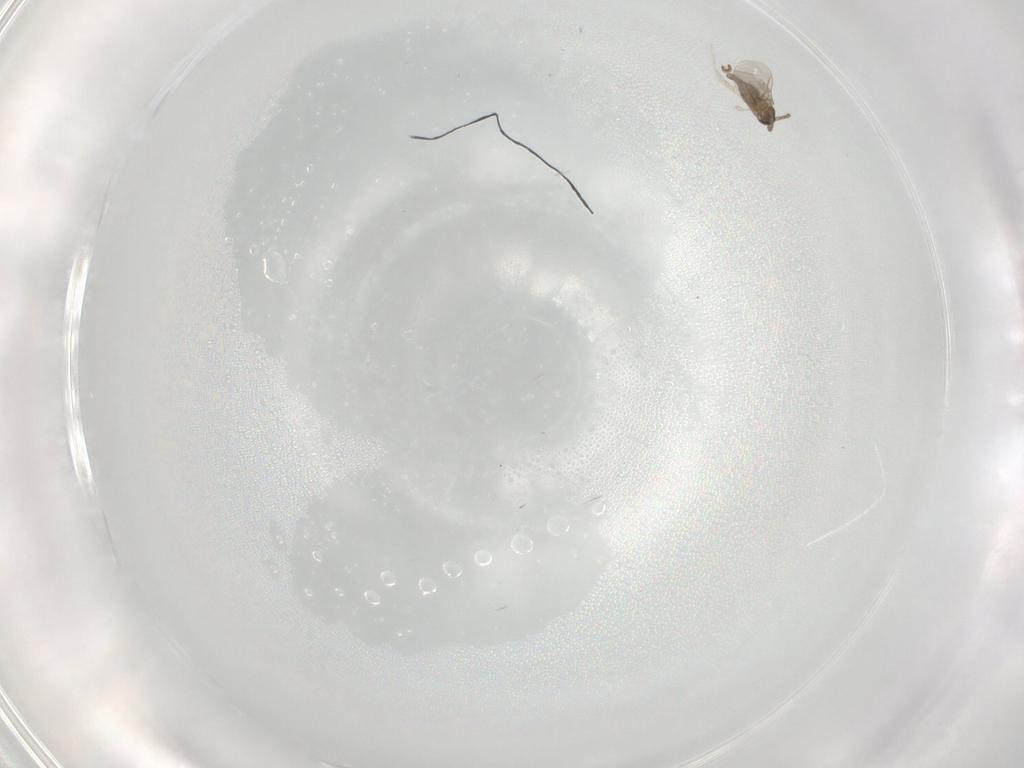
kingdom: Animalia
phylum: Arthropoda
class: Insecta
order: Diptera
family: Cecidomyiidae
